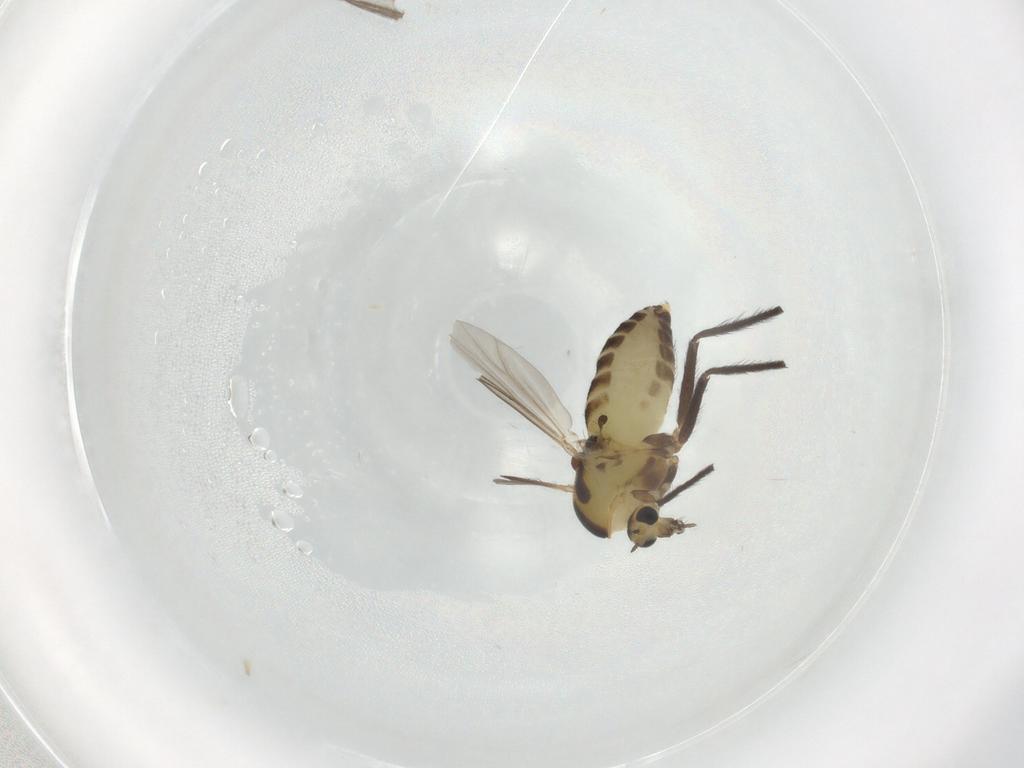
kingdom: Animalia
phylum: Arthropoda
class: Insecta
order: Diptera
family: Chironomidae
